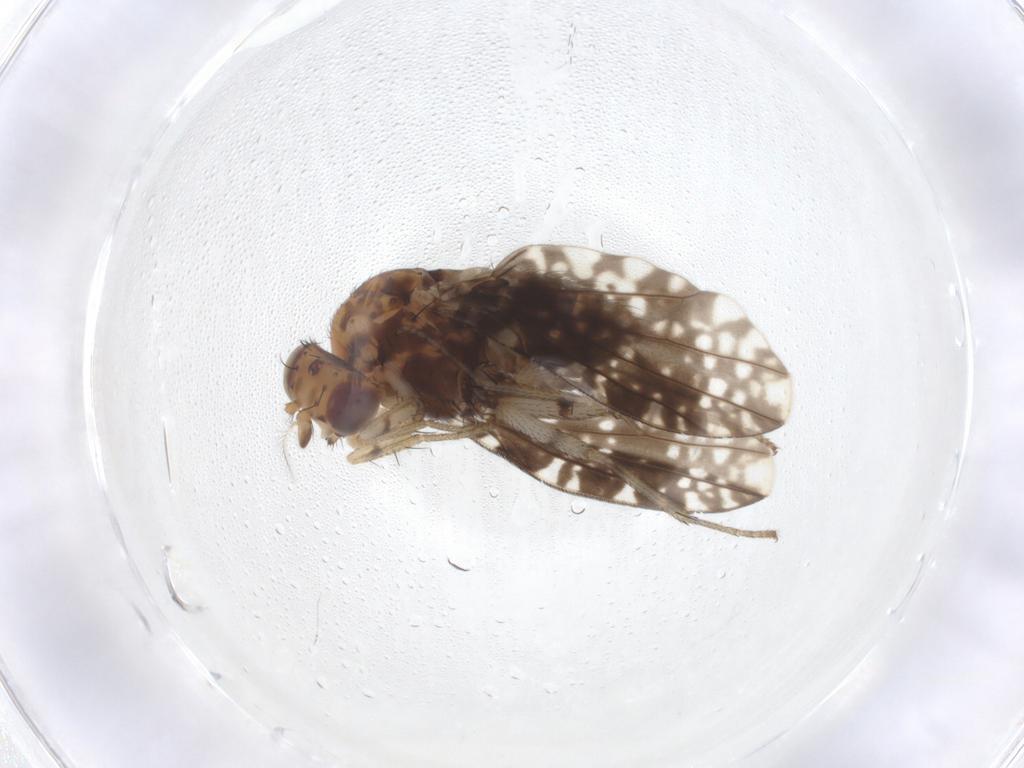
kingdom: Animalia
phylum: Arthropoda
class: Insecta
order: Diptera
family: Lauxaniidae
